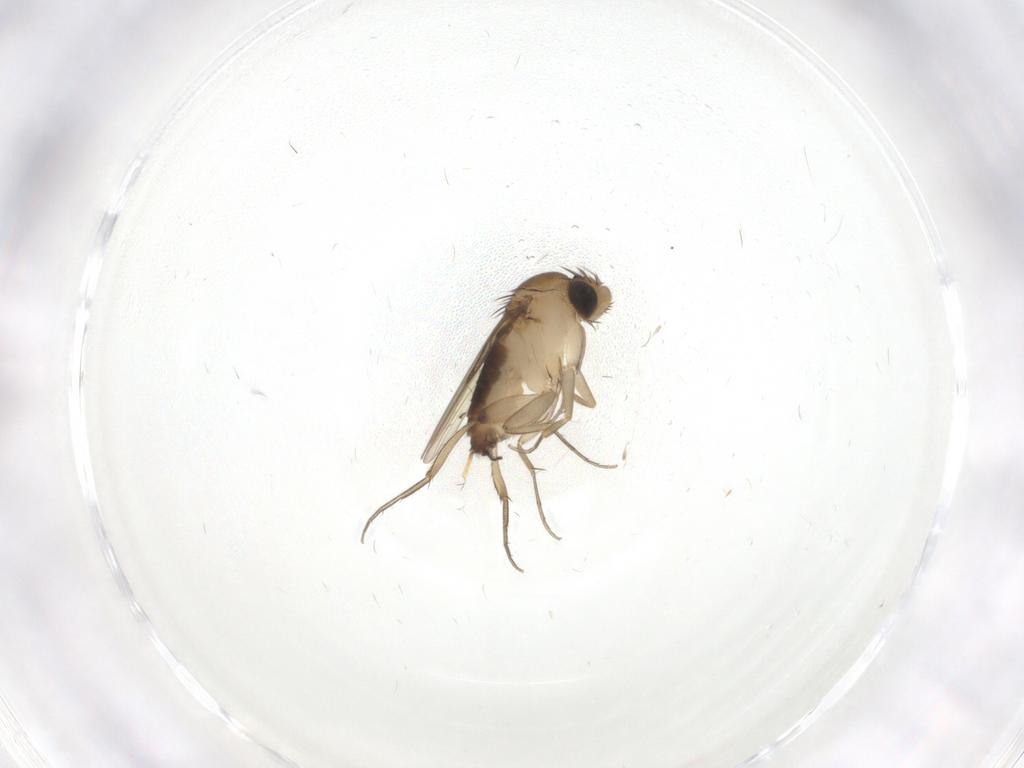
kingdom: Animalia
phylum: Arthropoda
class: Insecta
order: Diptera
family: Phoridae
